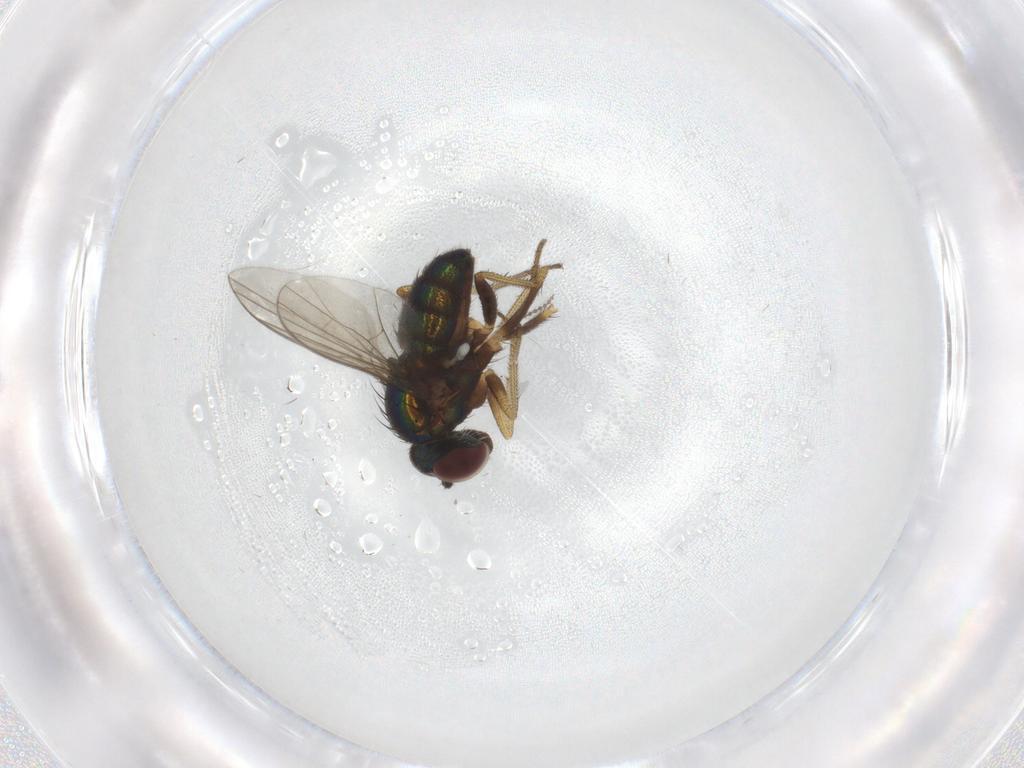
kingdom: Animalia
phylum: Arthropoda
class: Insecta
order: Diptera
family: Dolichopodidae
